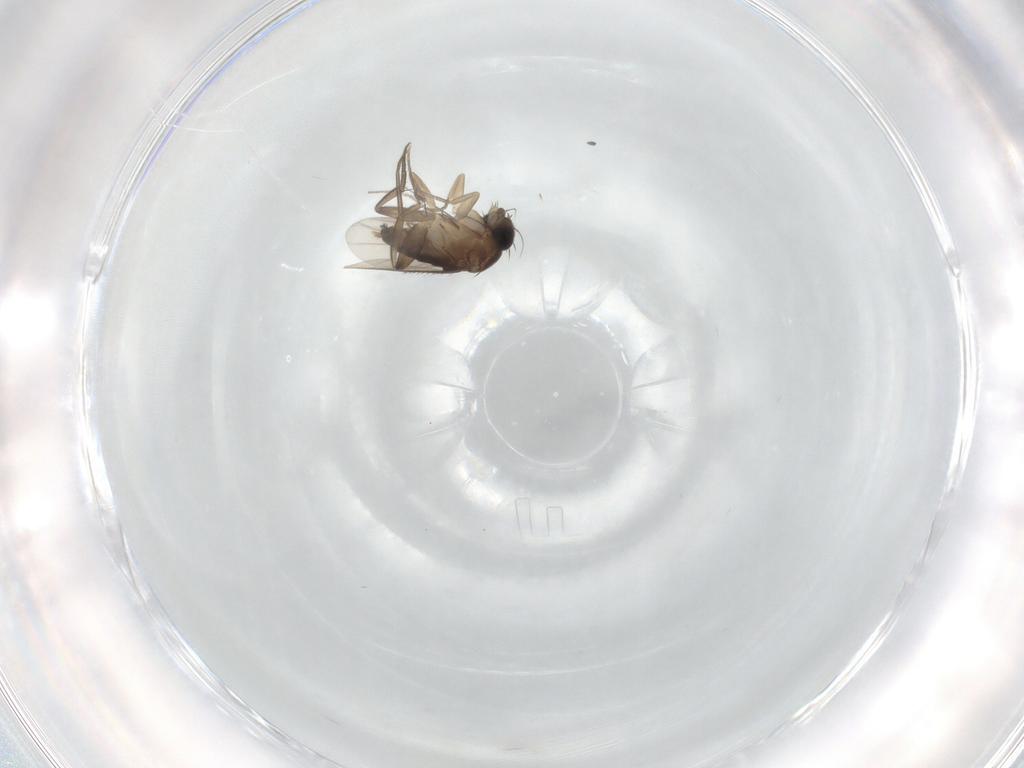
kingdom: Animalia
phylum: Arthropoda
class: Insecta
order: Diptera
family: Phoridae
